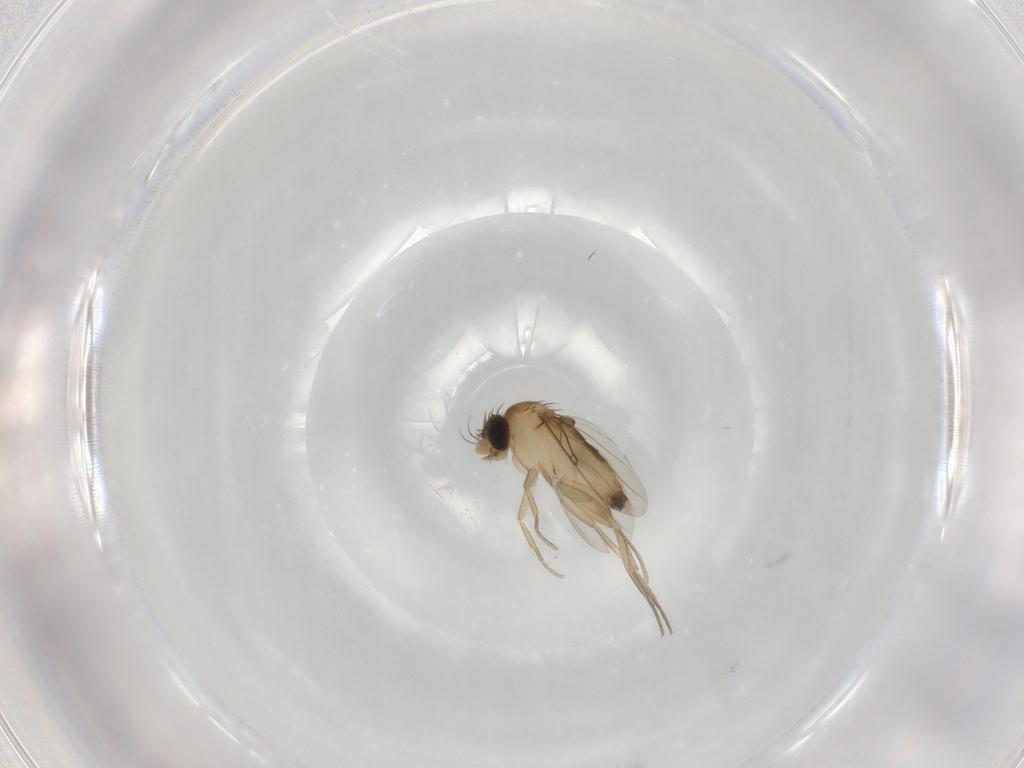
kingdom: Animalia
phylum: Arthropoda
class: Insecta
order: Diptera
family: Phoridae
